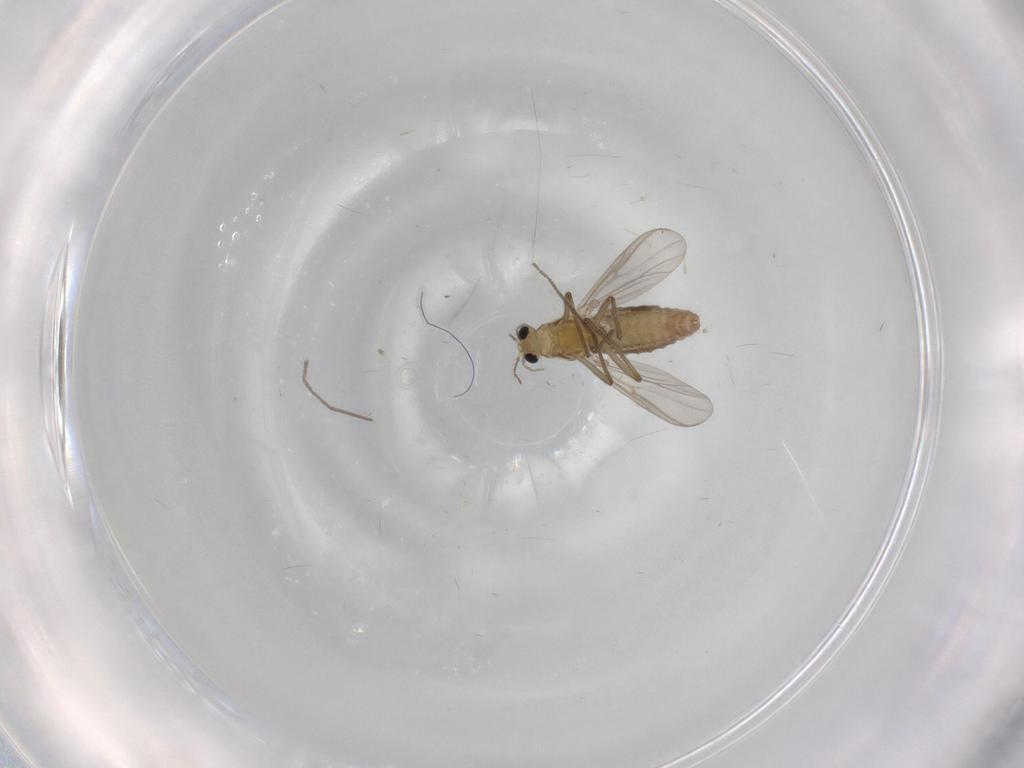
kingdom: Animalia
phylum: Arthropoda
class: Insecta
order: Diptera
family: Chironomidae
